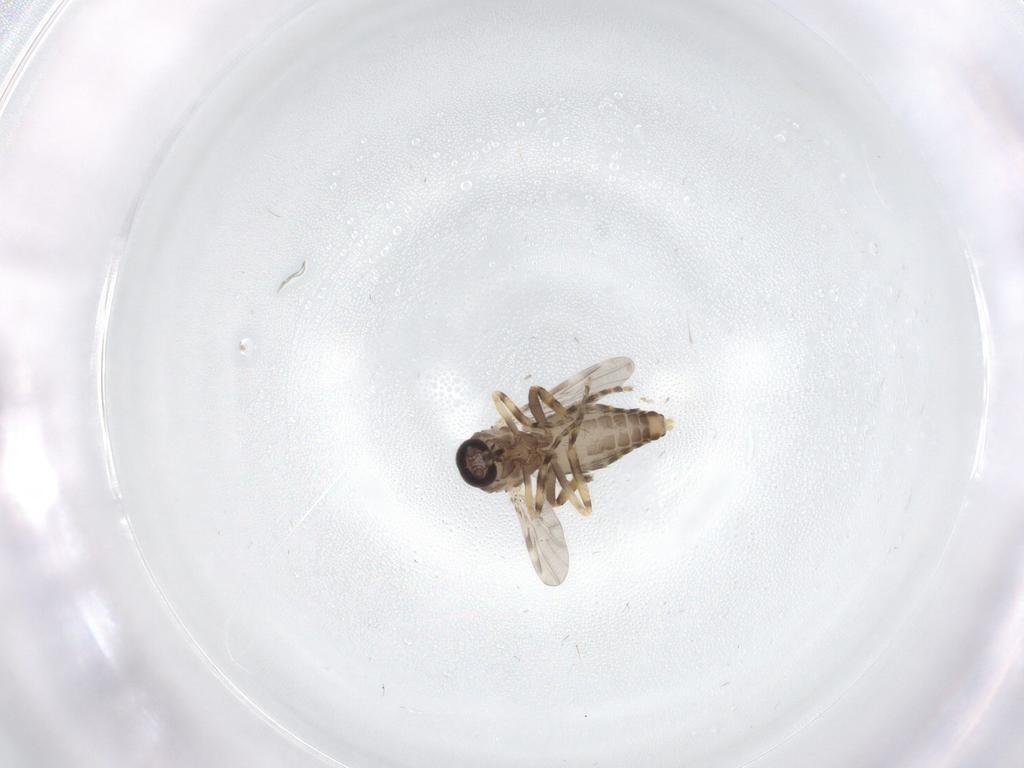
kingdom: Animalia
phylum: Arthropoda
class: Insecta
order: Diptera
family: Ceratopogonidae
